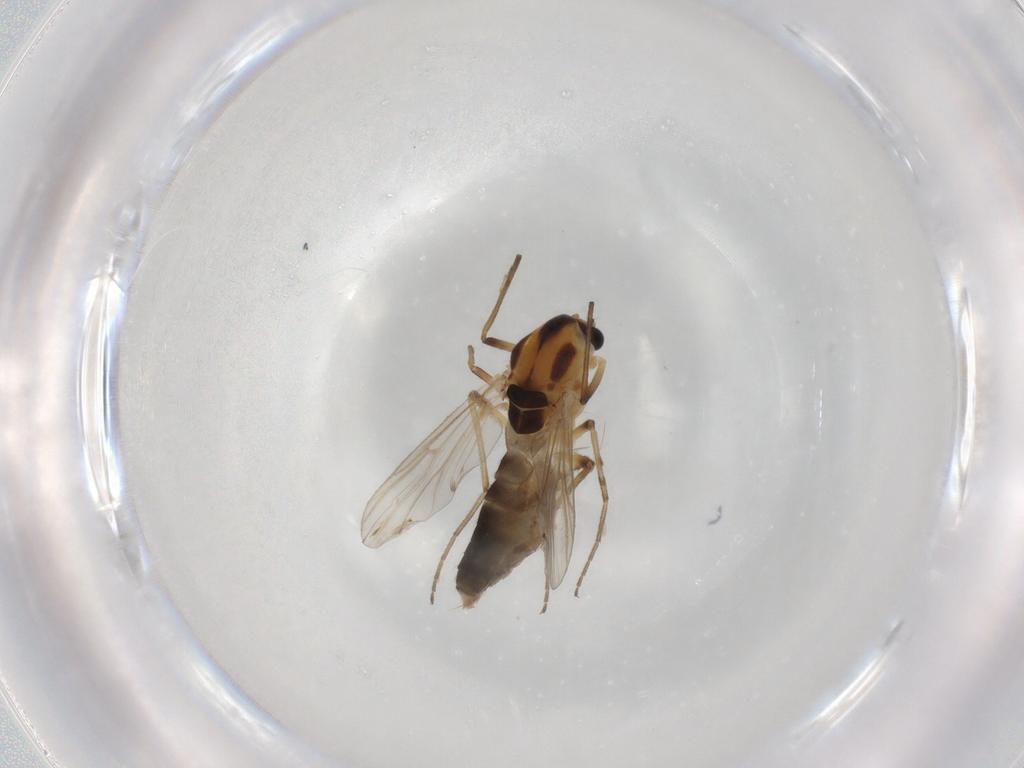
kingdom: Animalia
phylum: Arthropoda
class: Insecta
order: Diptera
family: Chironomidae
